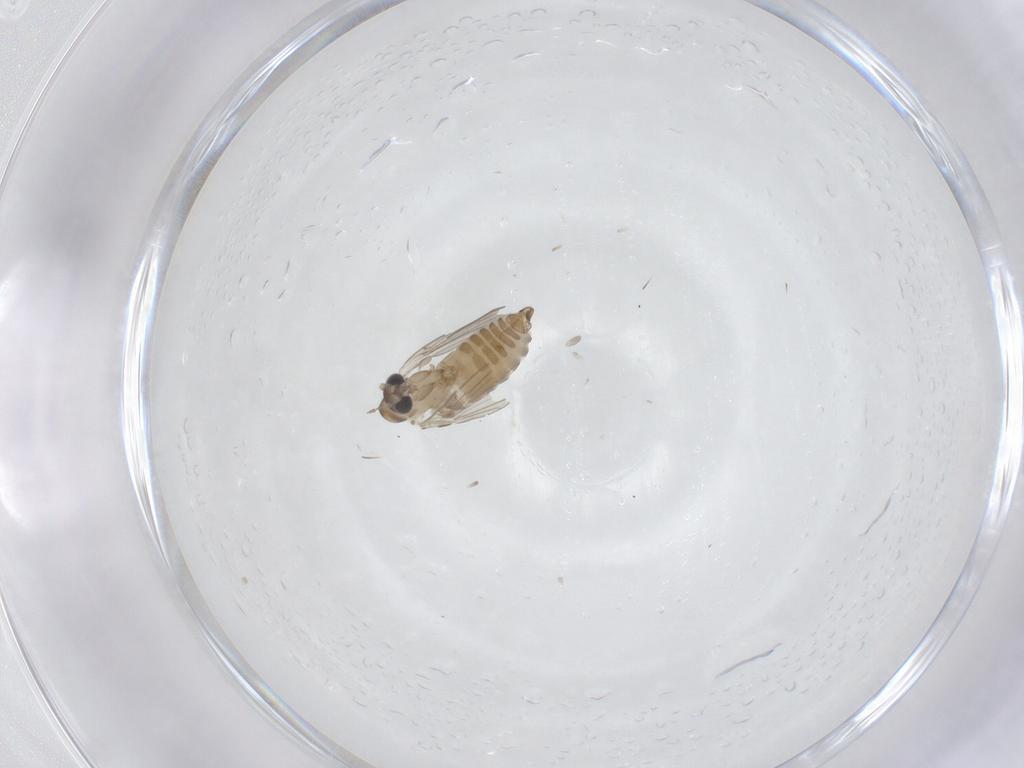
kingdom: Animalia
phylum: Arthropoda
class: Insecta
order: Diptera
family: Psychodidae
